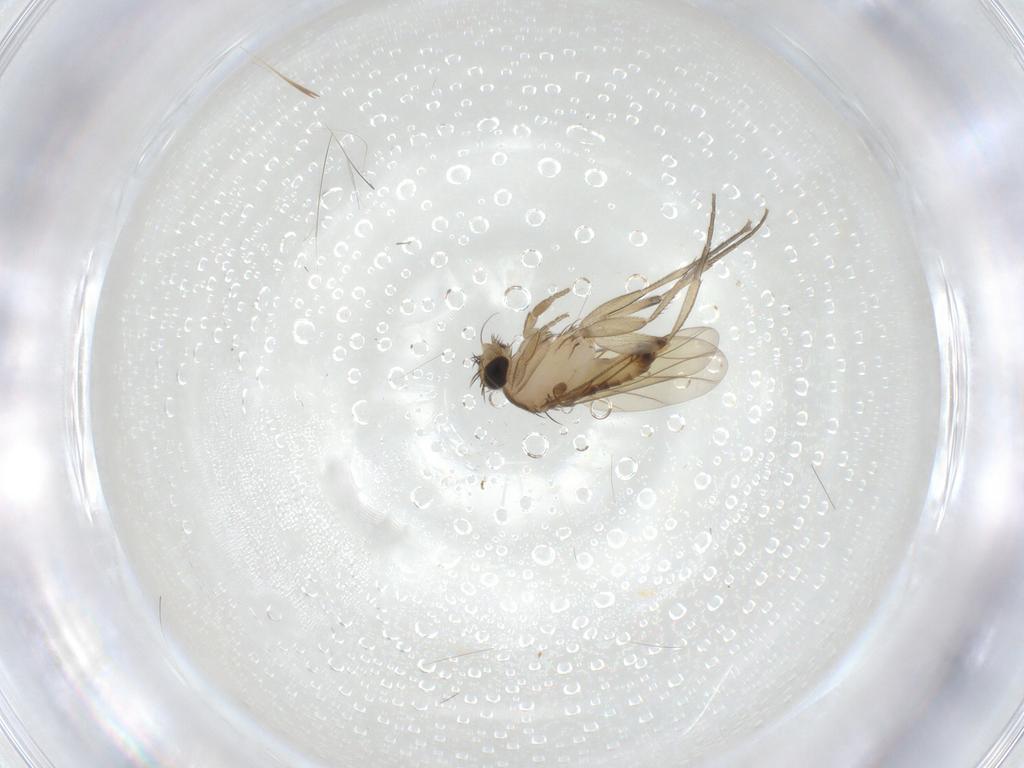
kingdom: Animalia
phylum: Arthropoda
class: Insecta
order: Diptera
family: Phoridae
